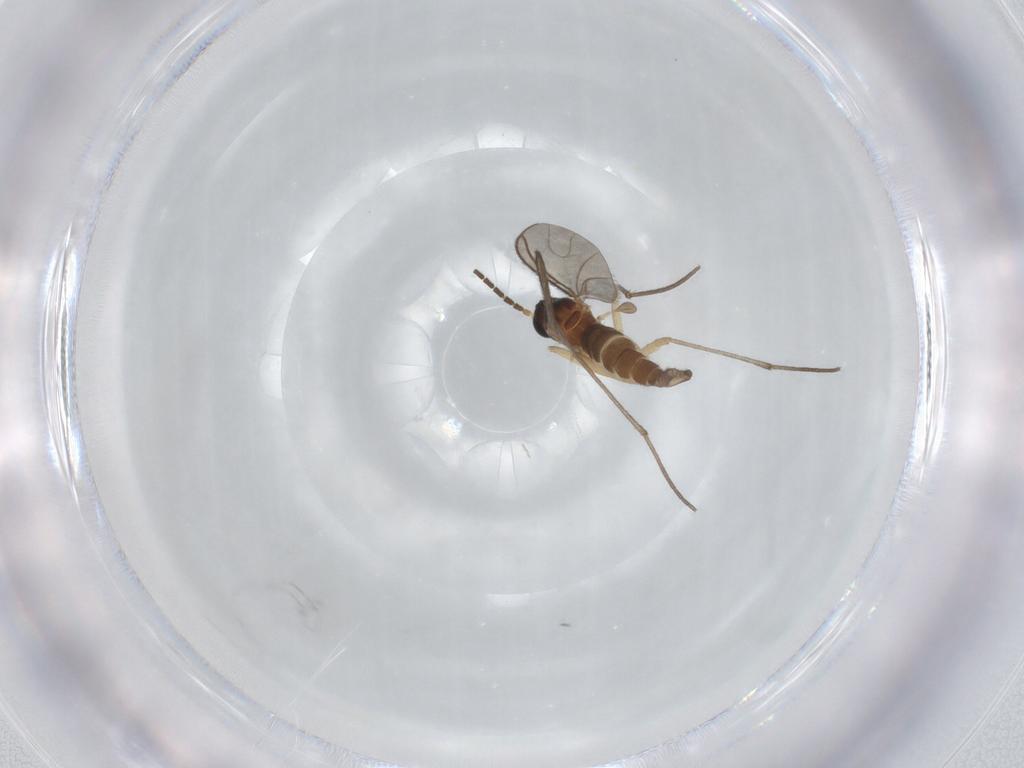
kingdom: Animalia
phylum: Arthropoda
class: Insecta
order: Diptera
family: Sciaridae
